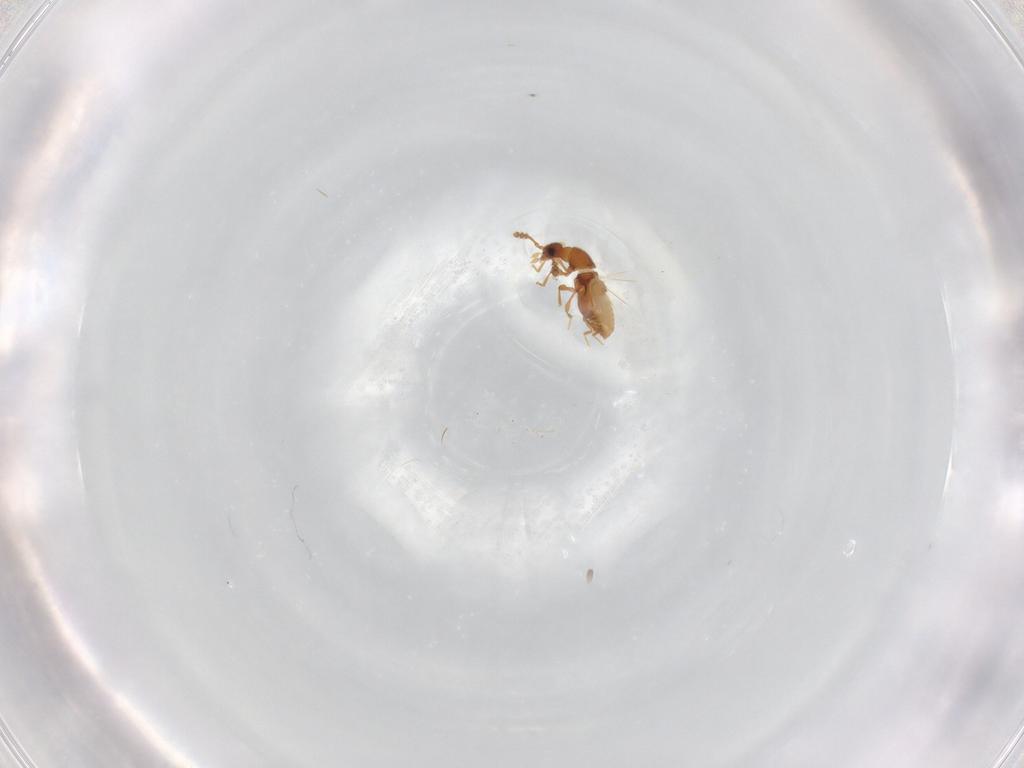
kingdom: Animalia
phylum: Arthropoda
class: Insecta
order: Coleoptera
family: Staphylinidae
